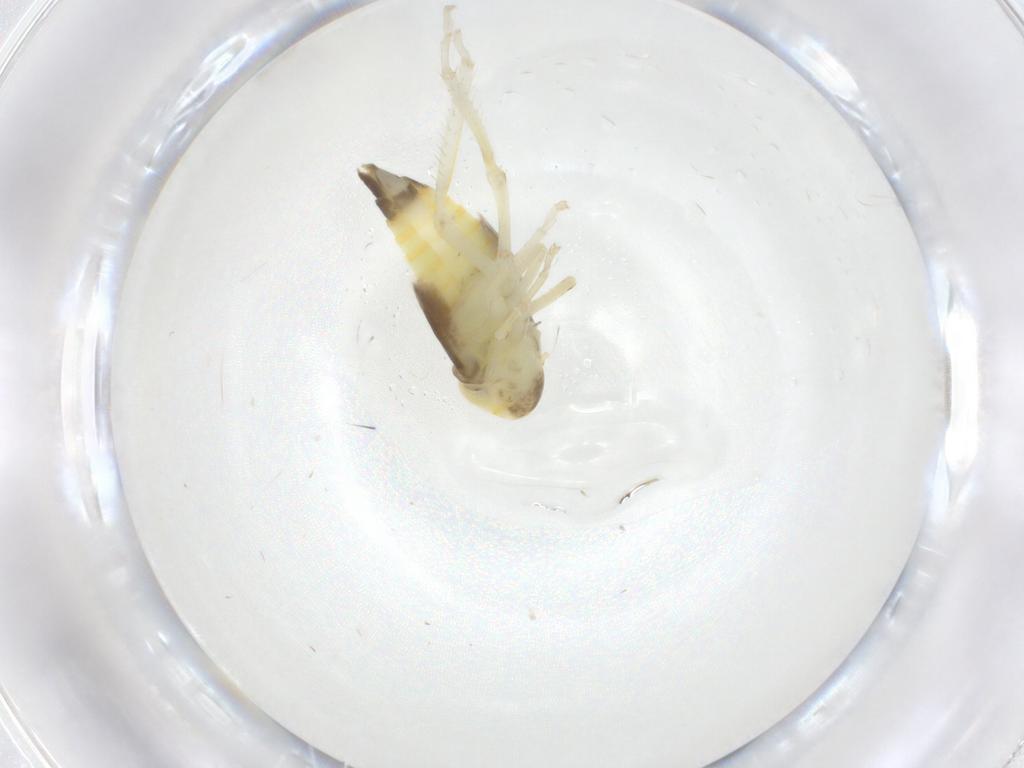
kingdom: Animalia
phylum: Arthropoda
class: Insecta
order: Hemiptera
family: Cicadellidae
